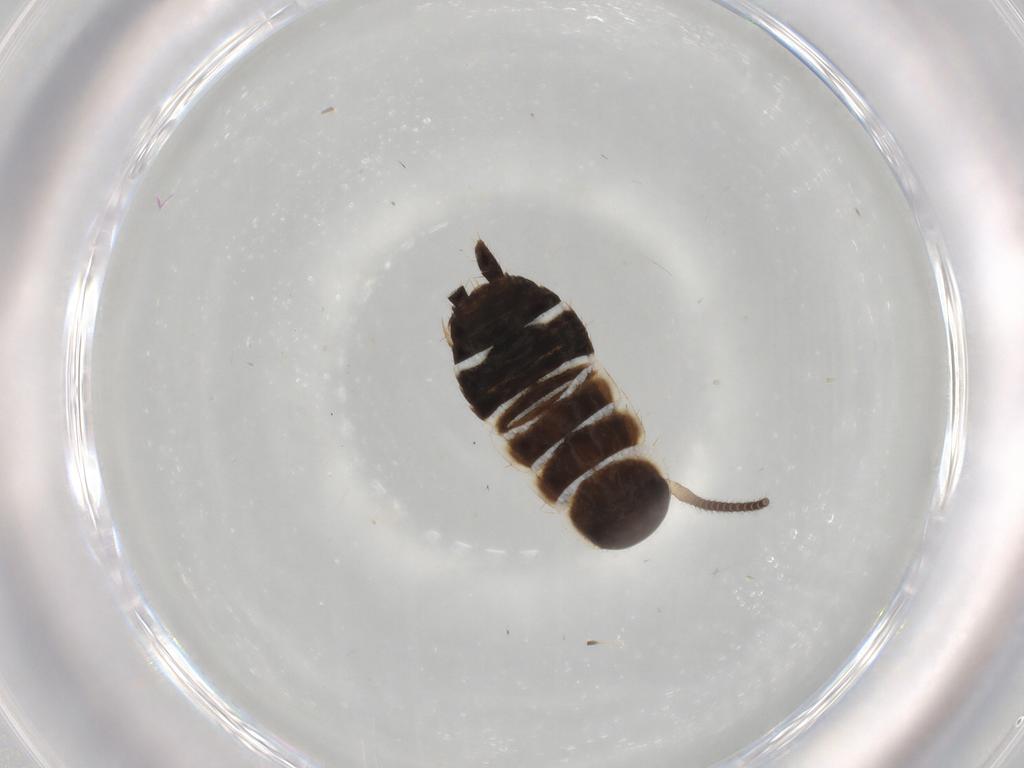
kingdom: Animalia
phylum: Arthropoda
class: Insecta
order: Blattodea
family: Ectobiidae
